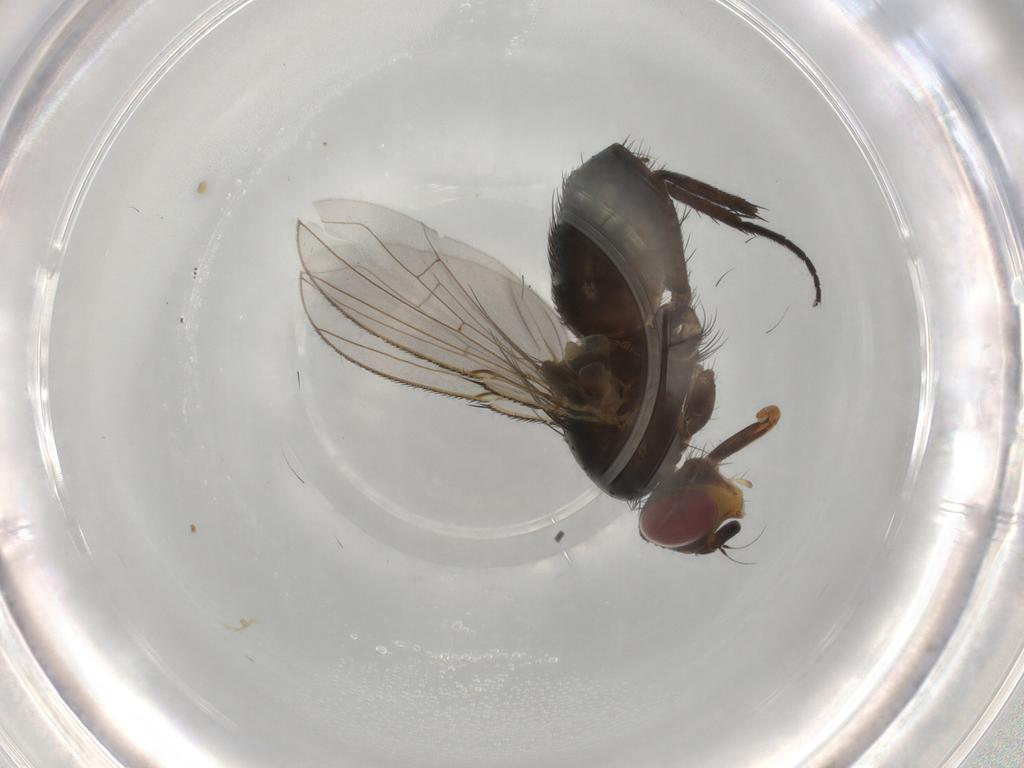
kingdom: Animalia
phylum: Arthropoda
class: Insecta
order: Diptera
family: Calliphoridae
